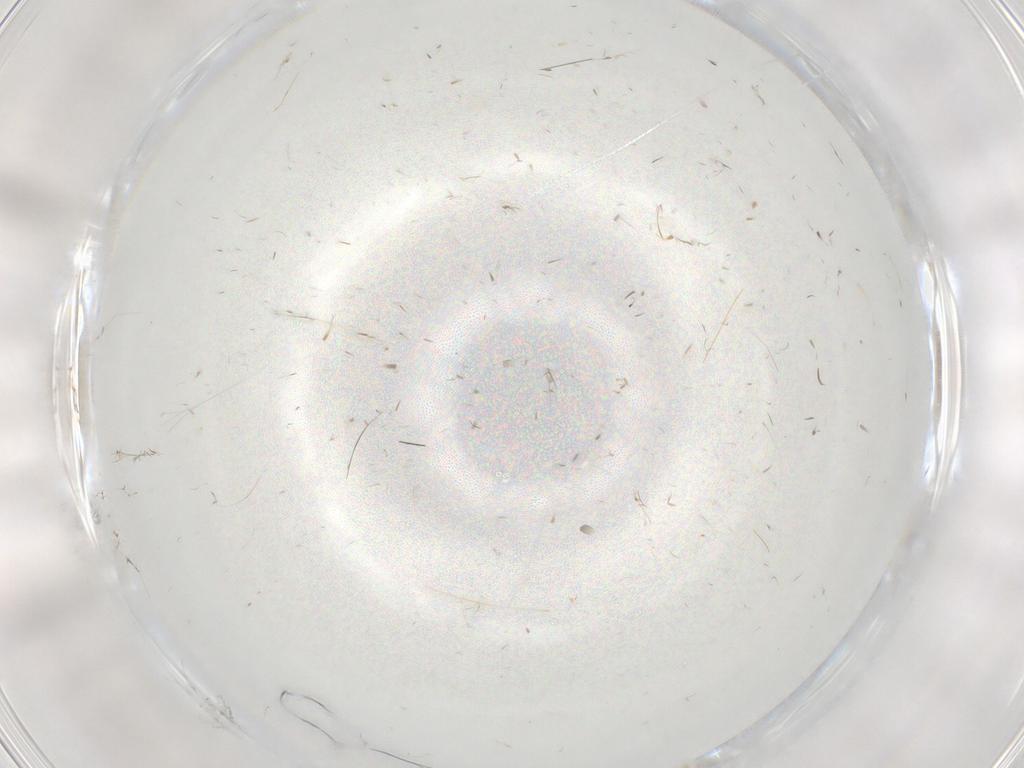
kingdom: Animalia
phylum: Arthropoda
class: Insecta
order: Diptera
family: Psychodidae
